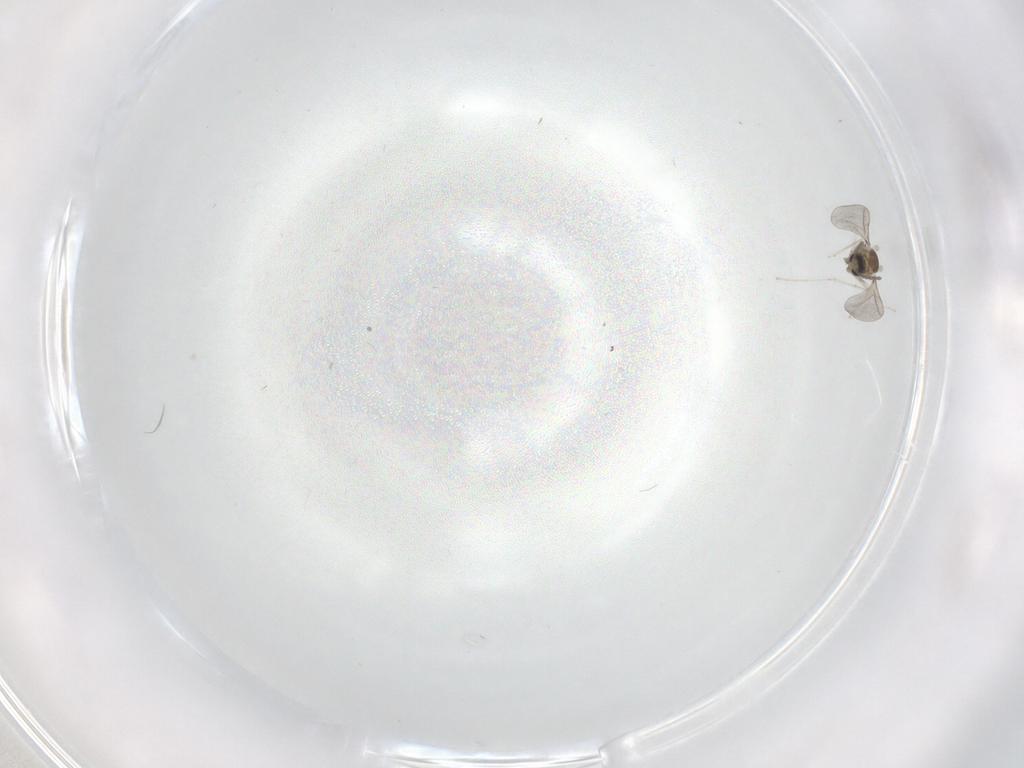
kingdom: Animalia
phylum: Arthropoda
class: Insecta
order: Diptera
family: Cecidomyiidae
